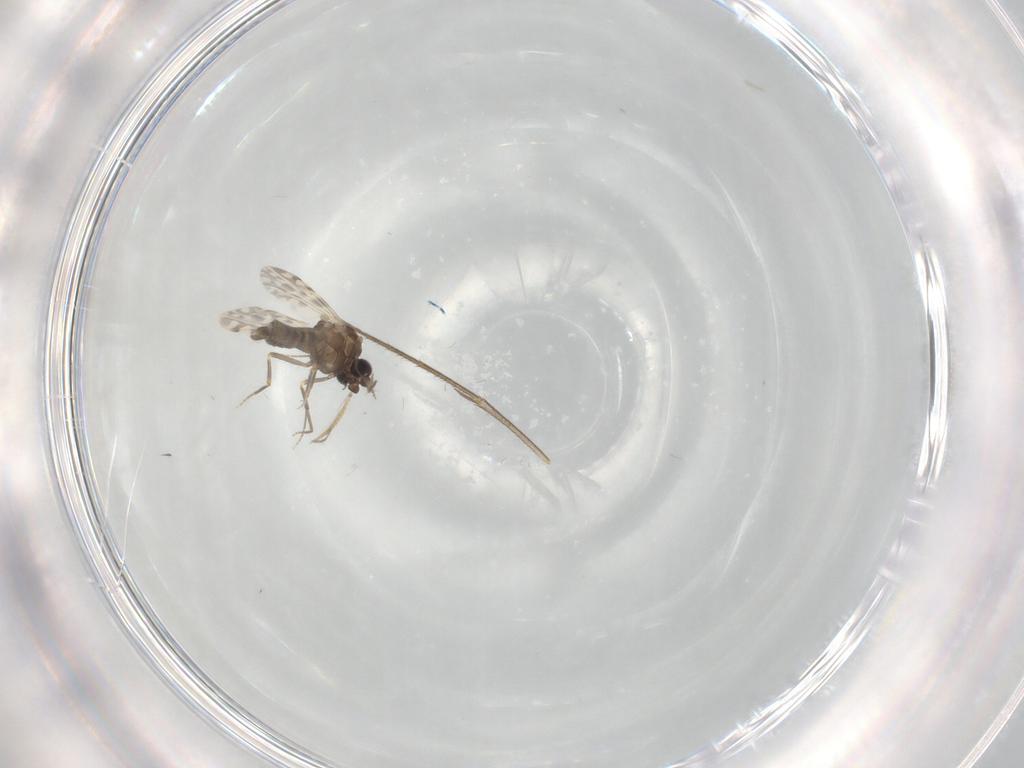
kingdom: Animalia
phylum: Arthropoda
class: Insecta
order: Diptera
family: Ceratopogonidae
